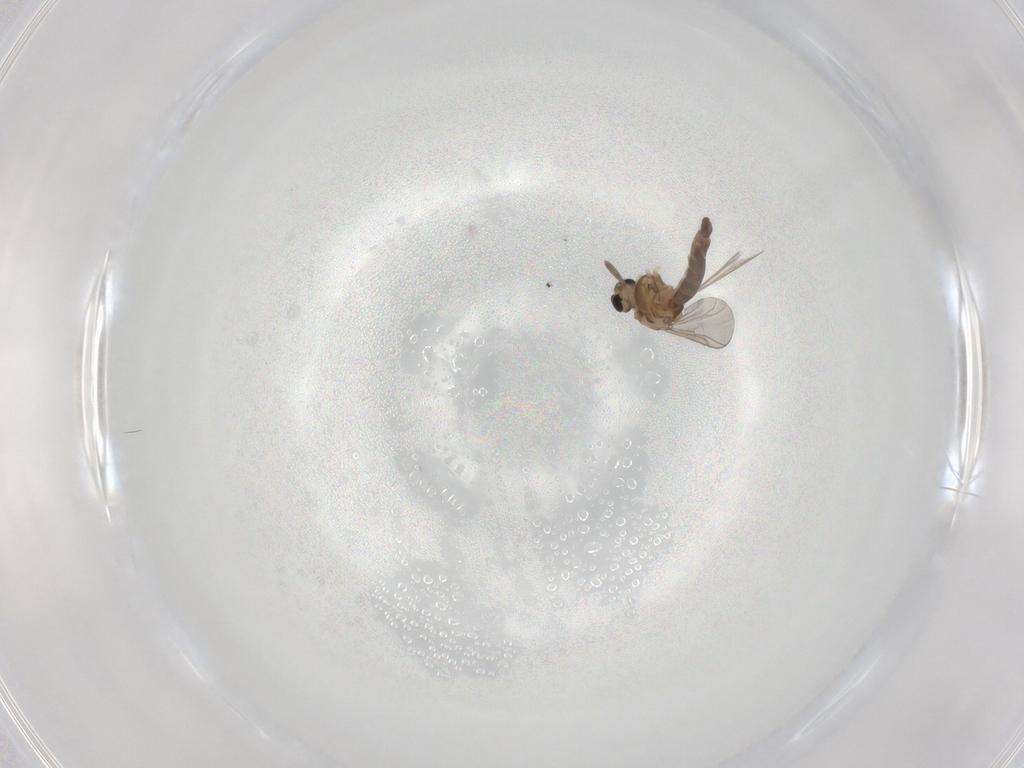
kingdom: Animalia
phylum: Arthropoda
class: Insecta
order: Diptera
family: Chironomidae
